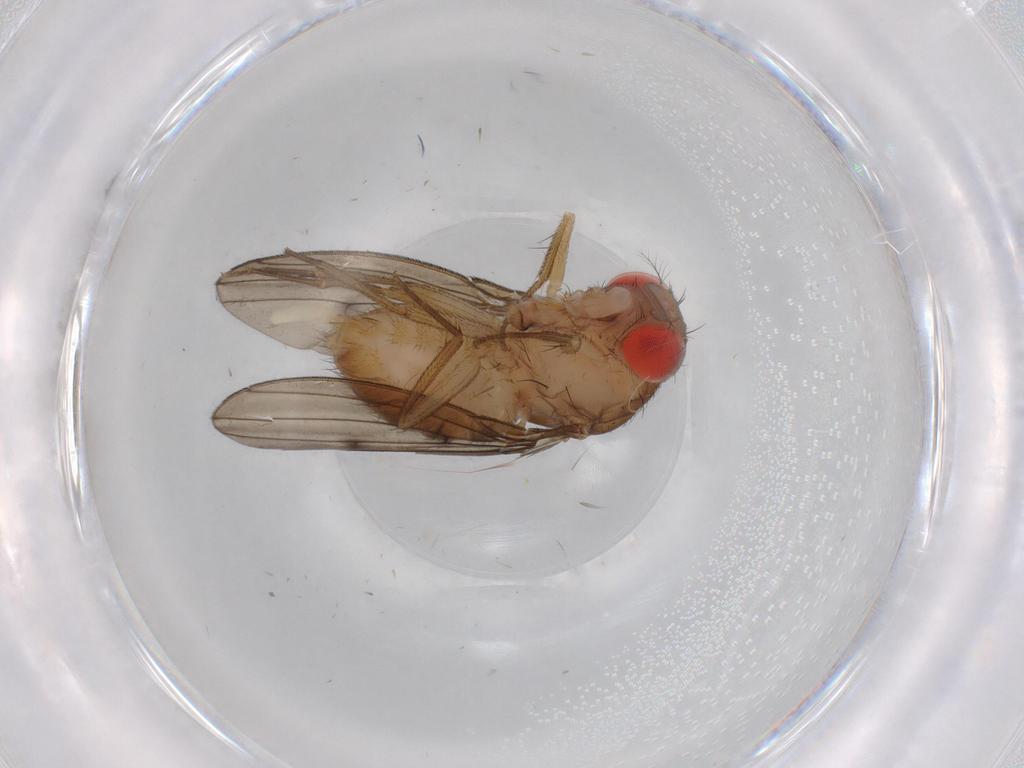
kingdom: Animalia
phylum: Arthropoda
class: Insecta
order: Diptera
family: Drosophilidae
